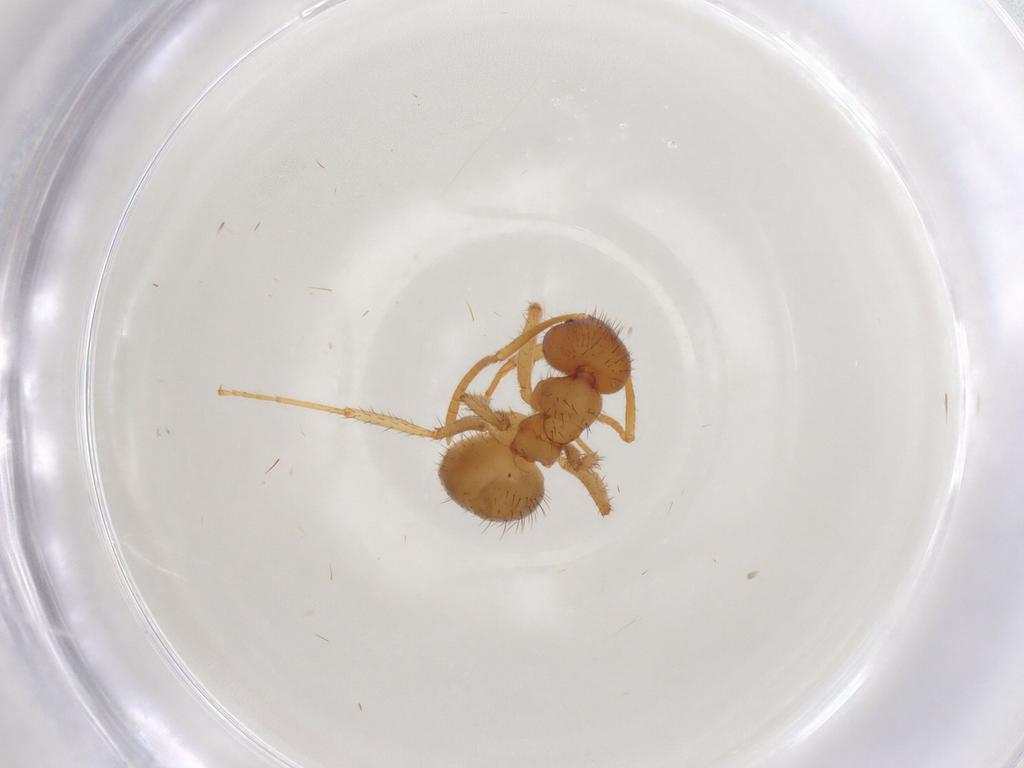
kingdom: Animalia
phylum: Arthropoda
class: Insecta
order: Hymenoptera
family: Formicidae
